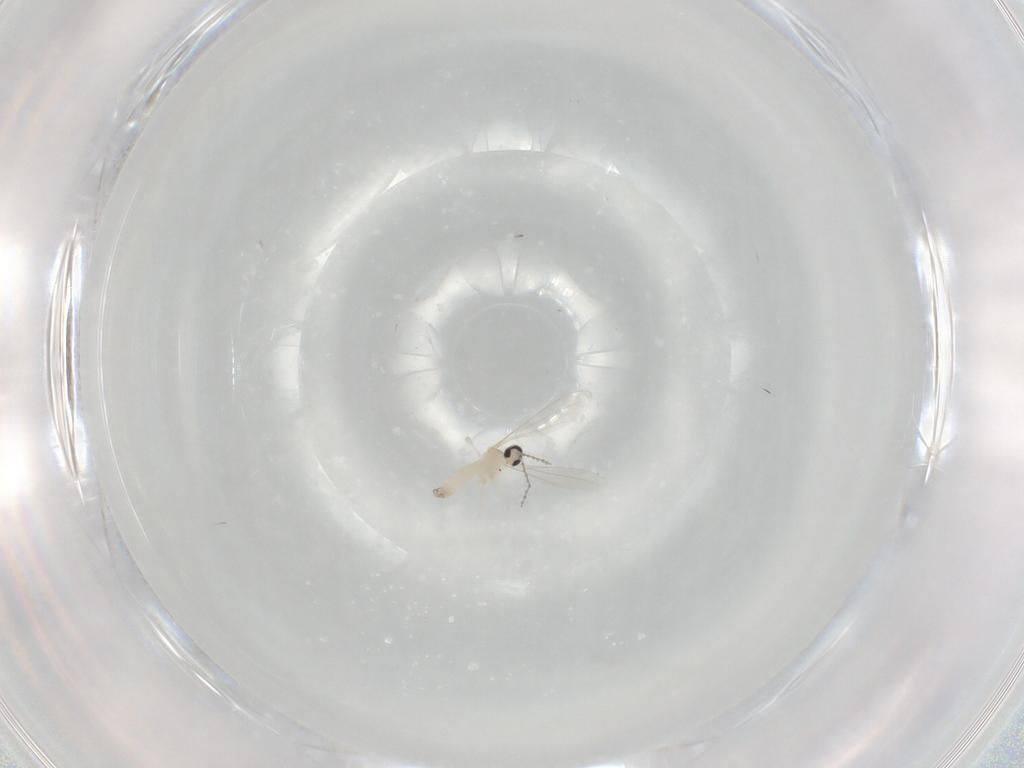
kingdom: Animalia
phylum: Arthropoda
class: Insecta
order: Diptera
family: Cecidomyiidae
